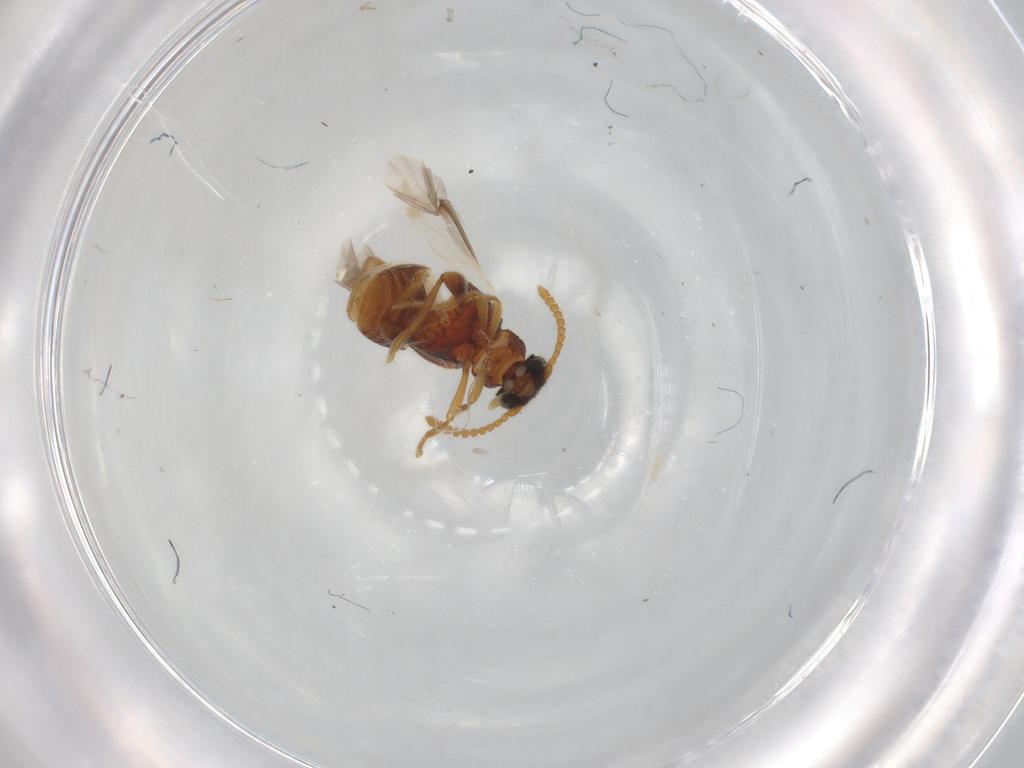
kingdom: Animalia
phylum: Arthropoda
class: Insecta
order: Coleoptera
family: Aderidae
